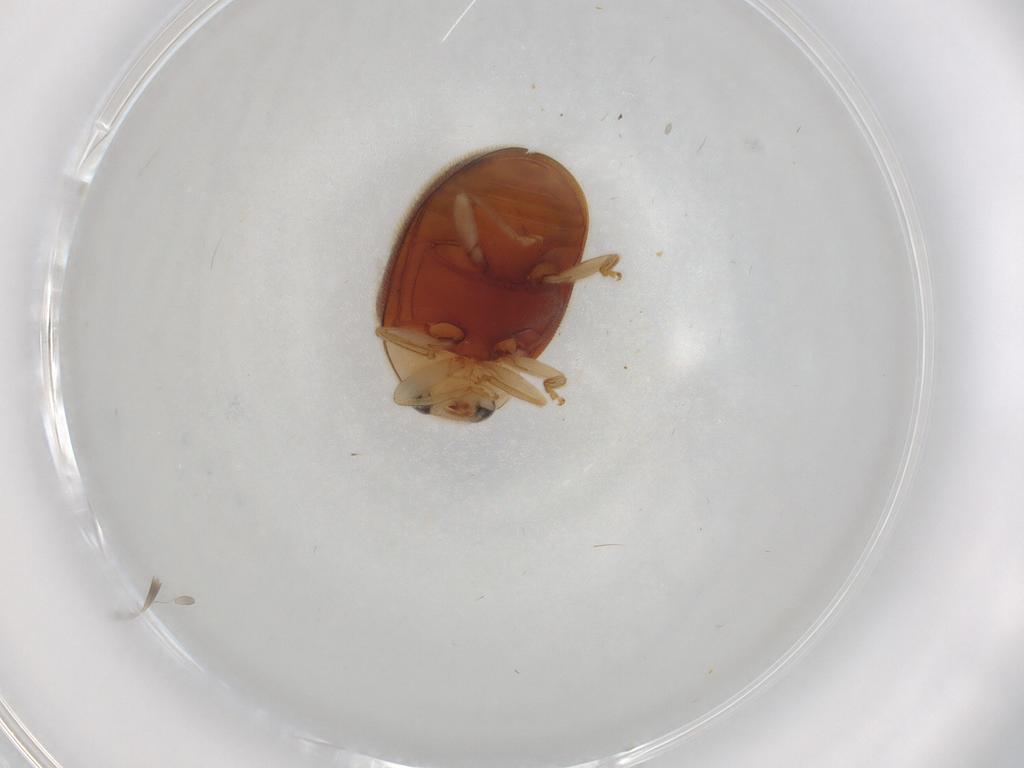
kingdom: Animalia
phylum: Arthropoda
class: Insecta
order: Coleoptera
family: Coccinellidae
